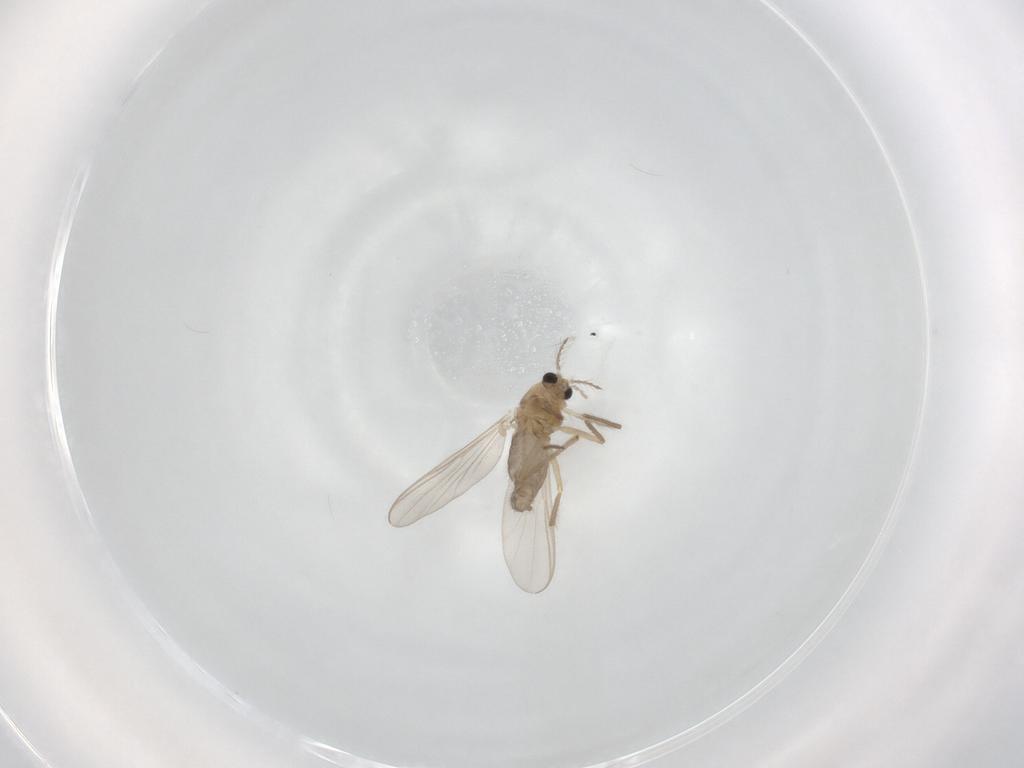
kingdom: Animalia
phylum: Arthropoda
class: Insecta
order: Diptera
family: Chironomidae
